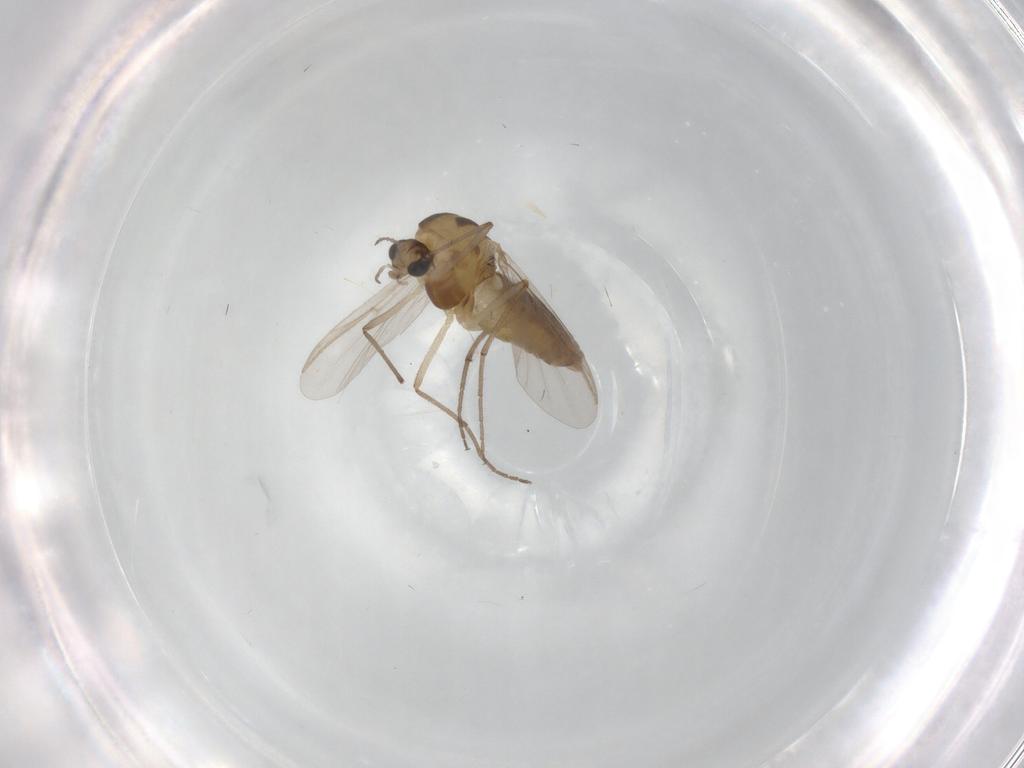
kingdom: Animalia
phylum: Arthropoda
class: Insecta
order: Diptera
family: Chironomidae
